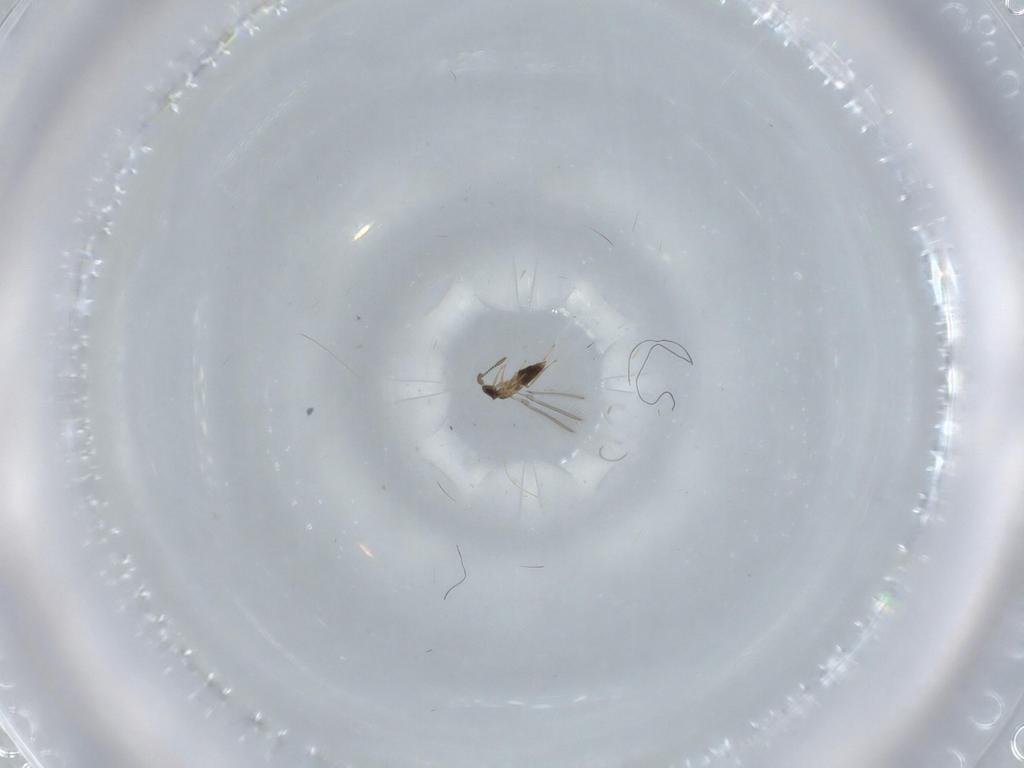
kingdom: Animalia
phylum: Arthropoda
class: Insecta
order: Hymenoptera
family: Mymaridae
